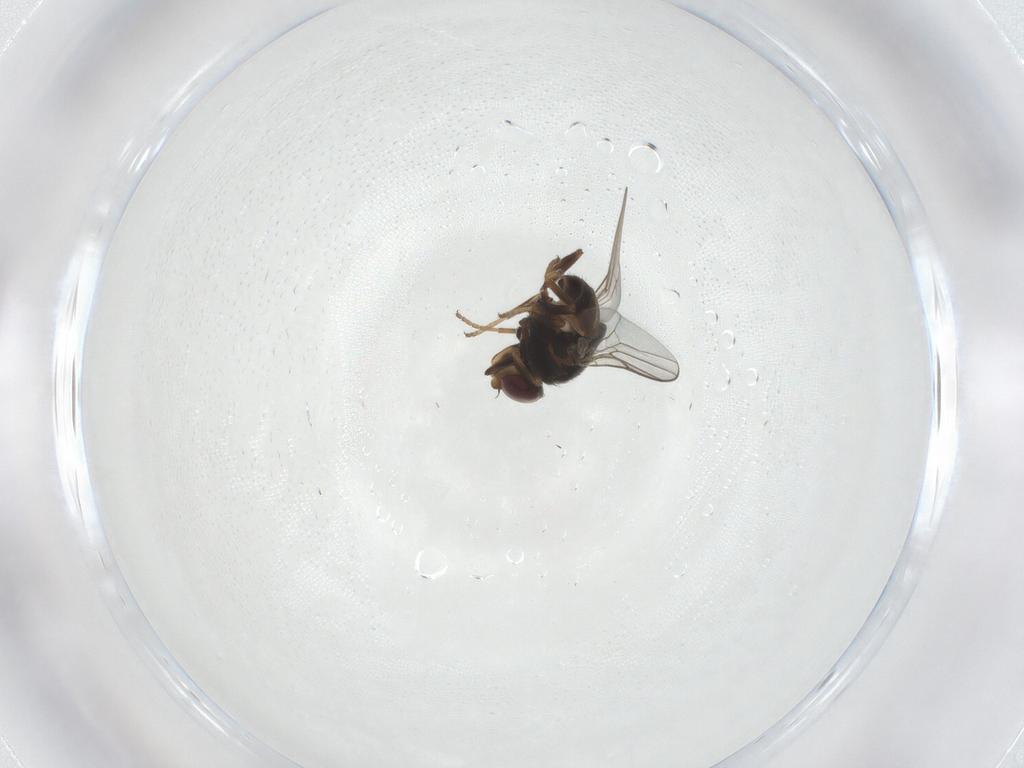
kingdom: Animalia
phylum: Arthropoda
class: Insecta
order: Diptera
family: Chloropidae
